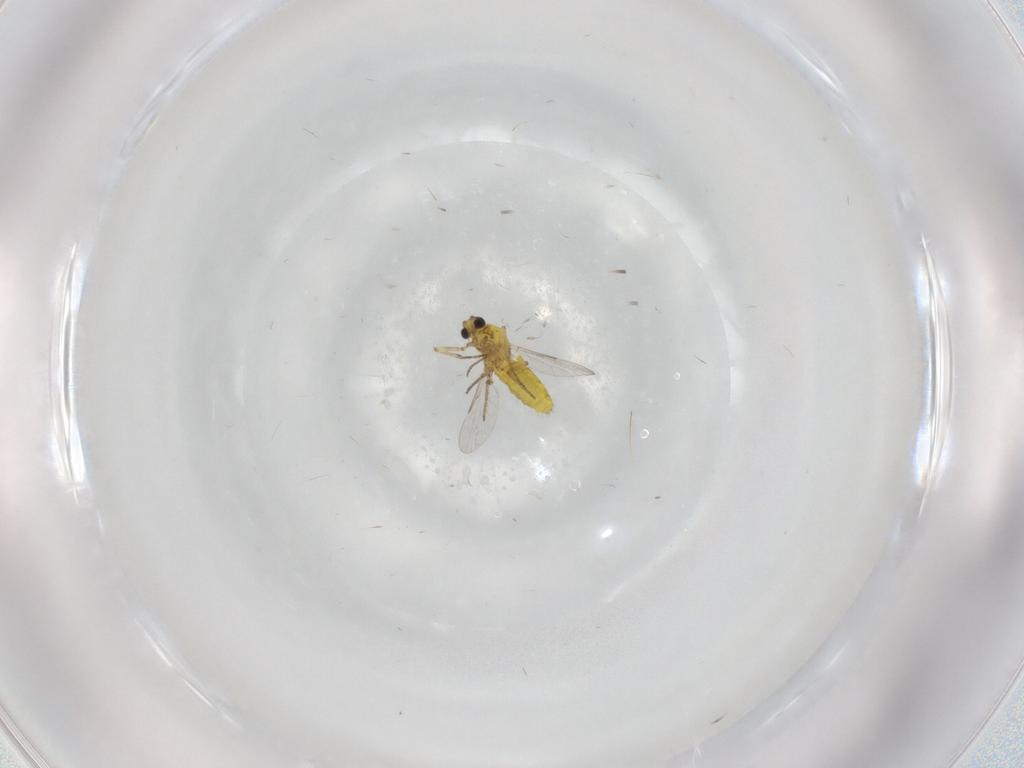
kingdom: Animalia
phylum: Arthropoda
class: Insecta
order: Diptera
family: Ceratopogonidae
